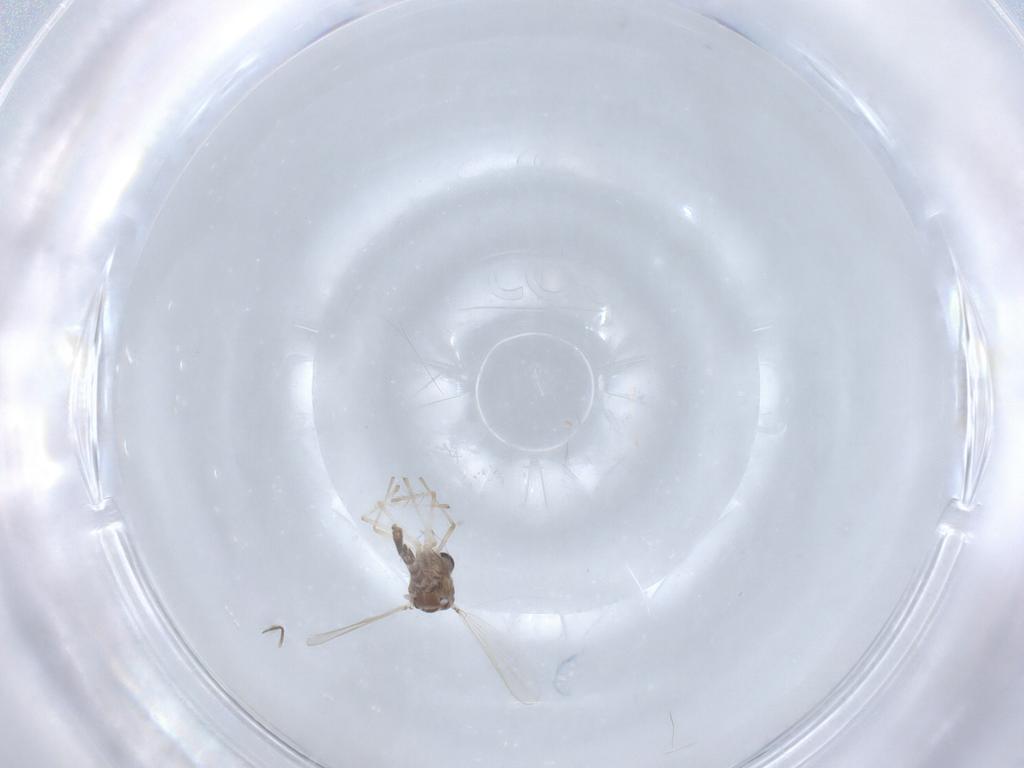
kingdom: Animalia
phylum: Arthropoda
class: Insecta
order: Diptera
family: Chironomidae
